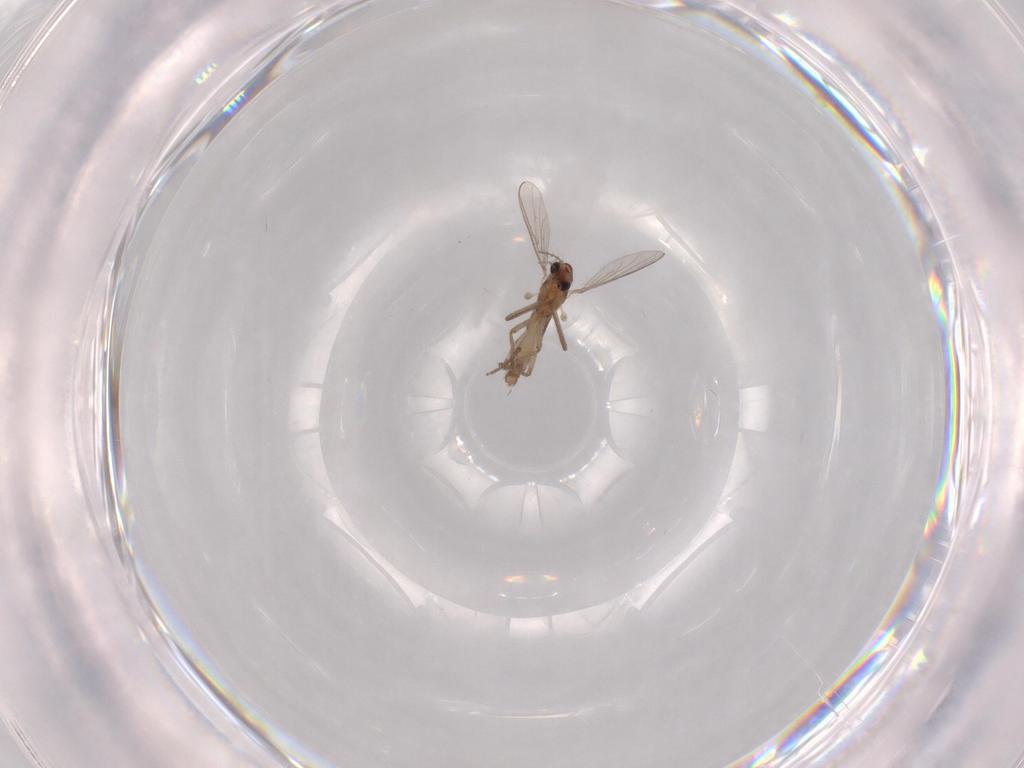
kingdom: Animalia
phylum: Arthropoda
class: Insecta
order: Diptera
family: Chironomidae
